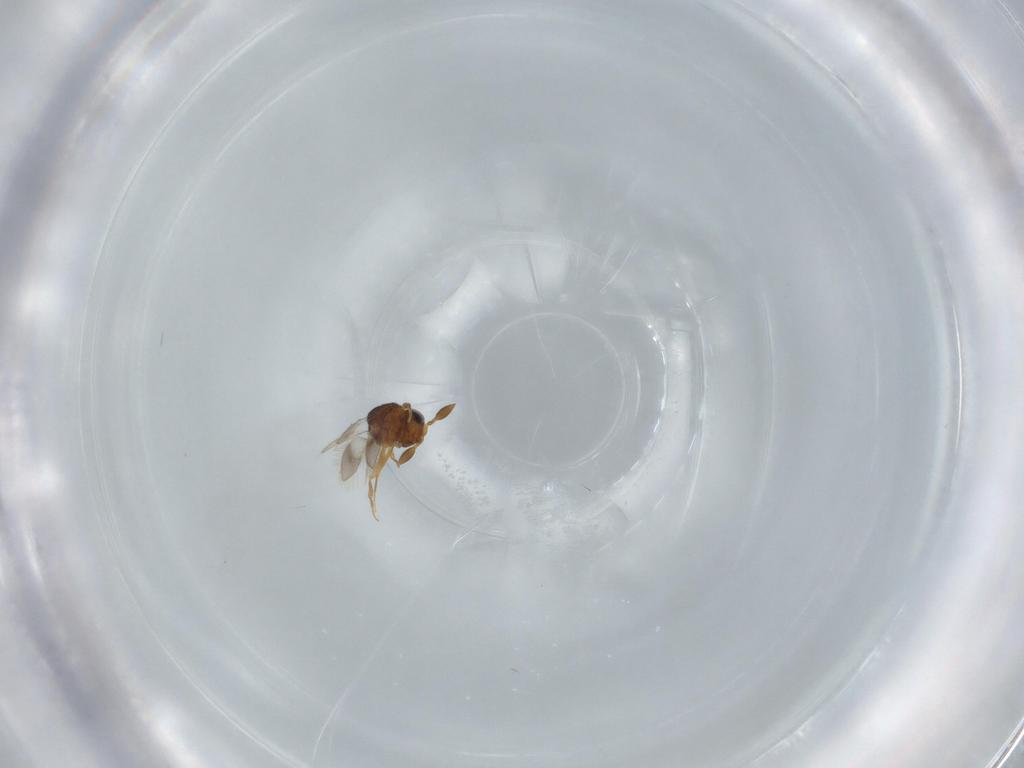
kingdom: Animalia
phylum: Arthropoda
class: Insecta
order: Hymenoptera
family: Scelionidae
